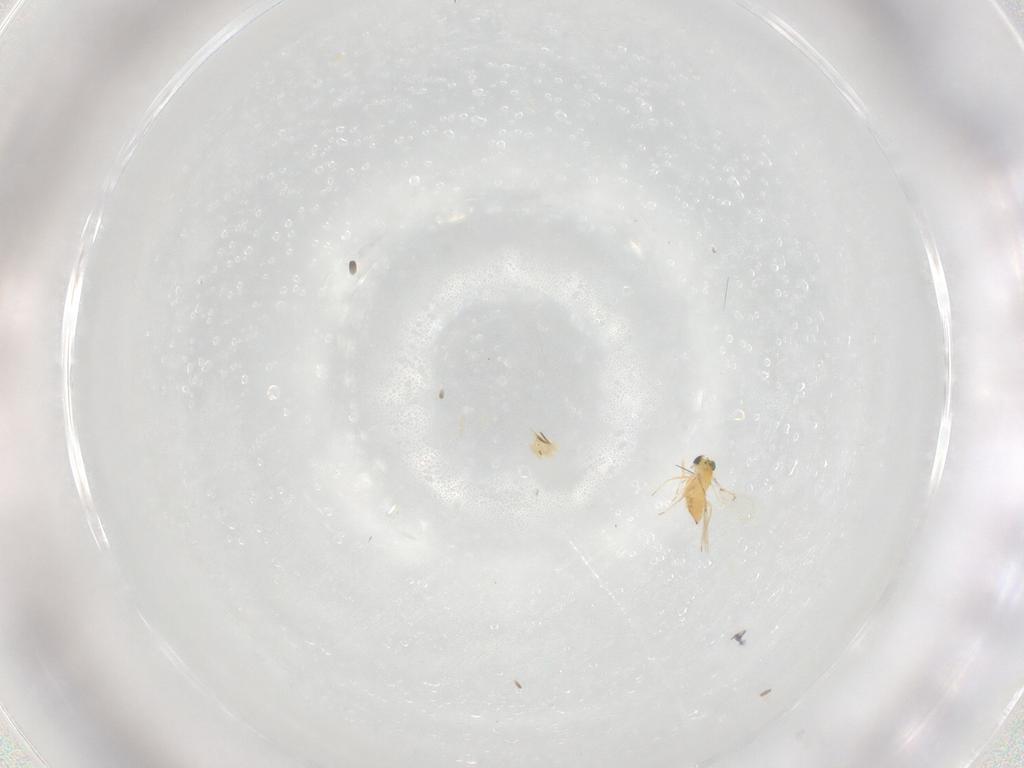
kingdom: Animalia
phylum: Arthropoda
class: Insecta
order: Hymenoptera
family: Trichogrammatidae
